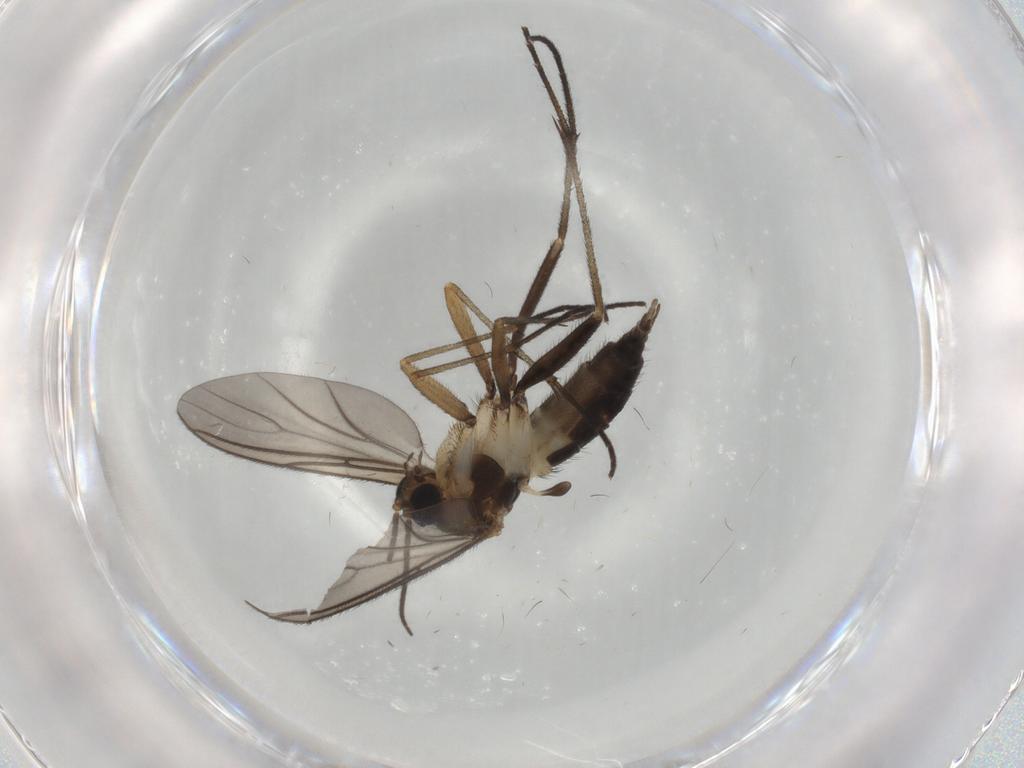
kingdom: Animalia
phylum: Arthropoda
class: Insecta
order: Diptera
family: Sciaridae
